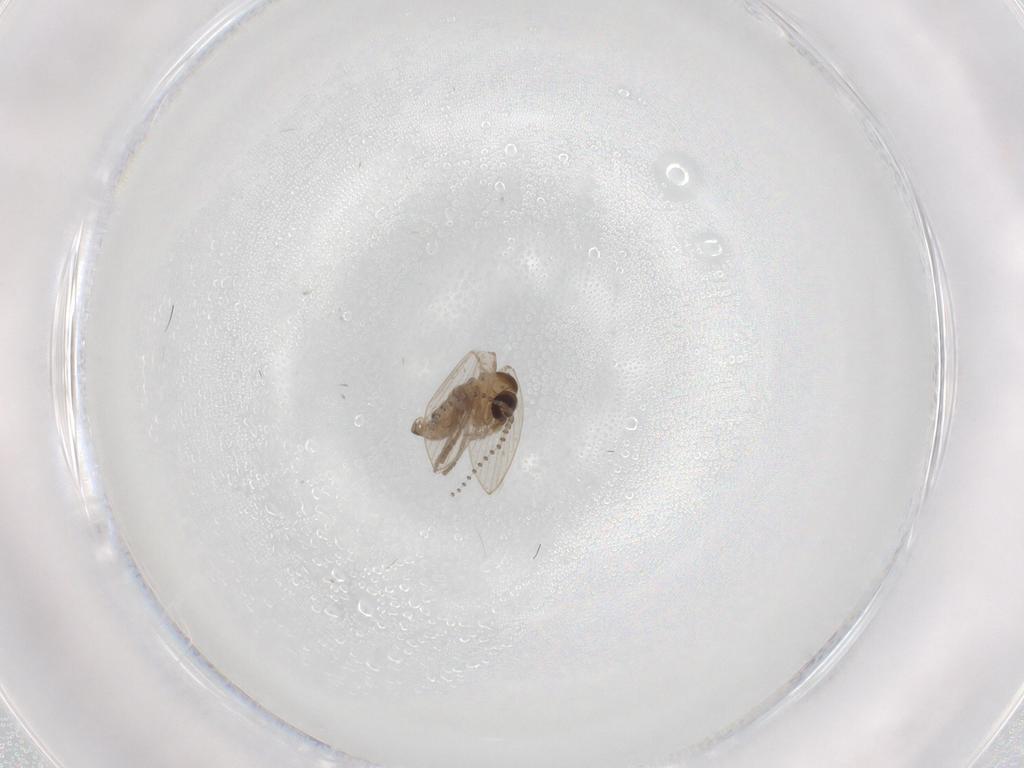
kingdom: Animalia
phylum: Arthropoda
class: Insecta
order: Diptera
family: Psychodidae
